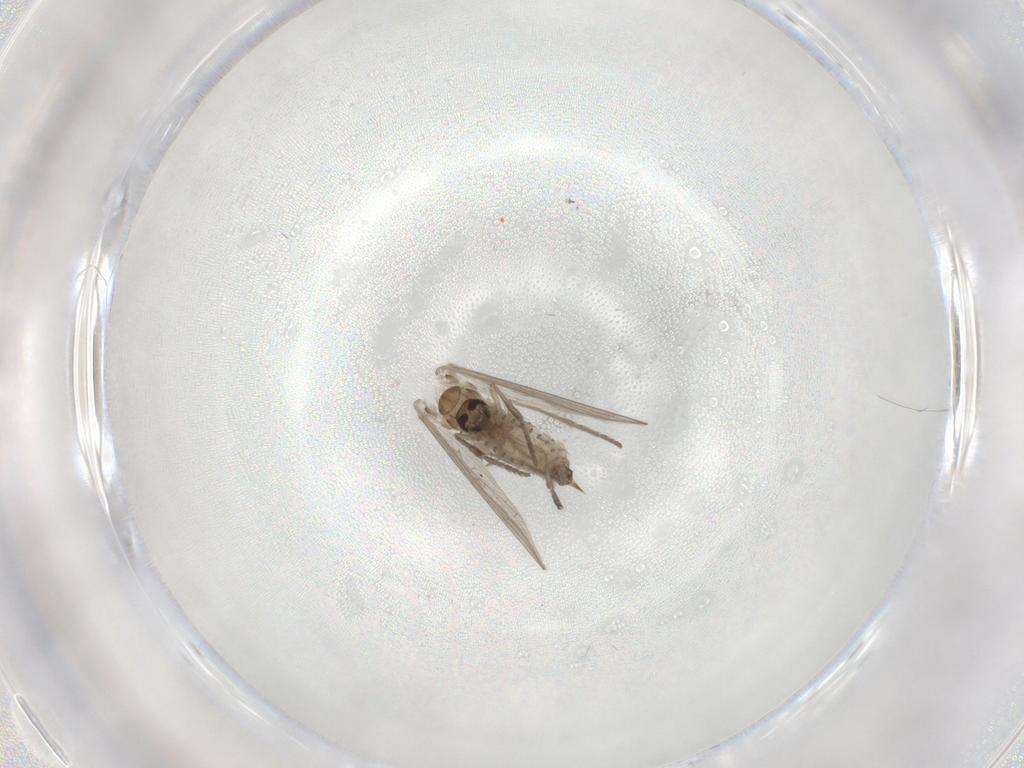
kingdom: Animalia
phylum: Arthropoda
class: Insecta
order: Diptera
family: Psychodidae
